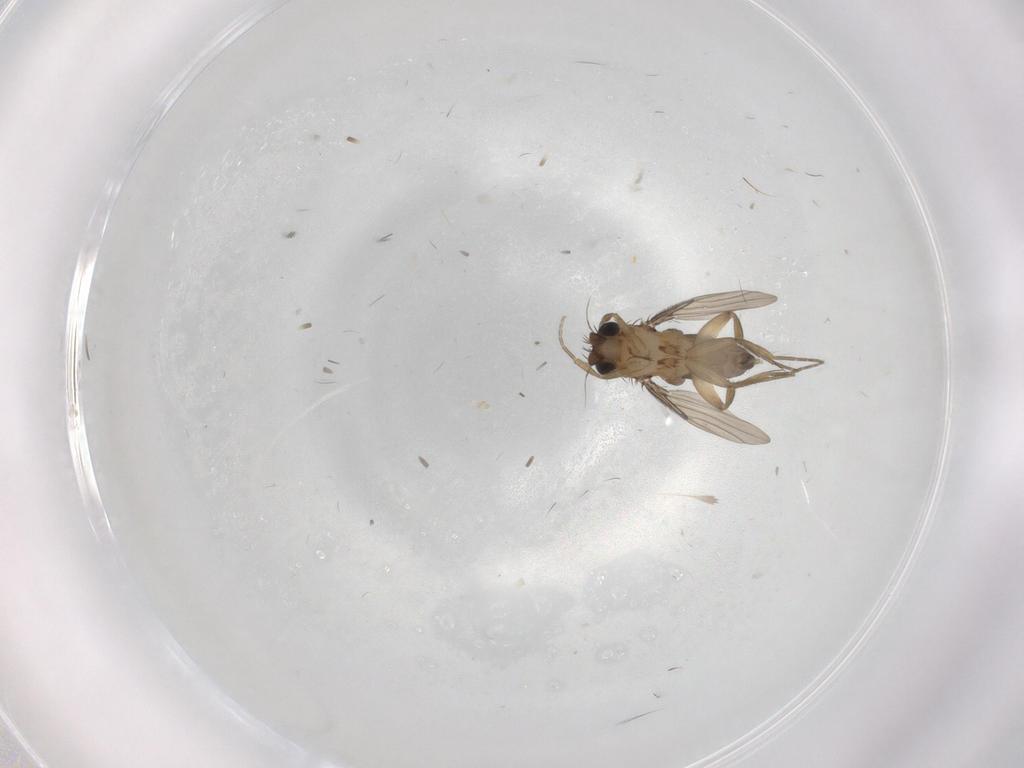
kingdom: Animalia
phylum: Arthropoda
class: Insecta
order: Diptera
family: Phoridae
